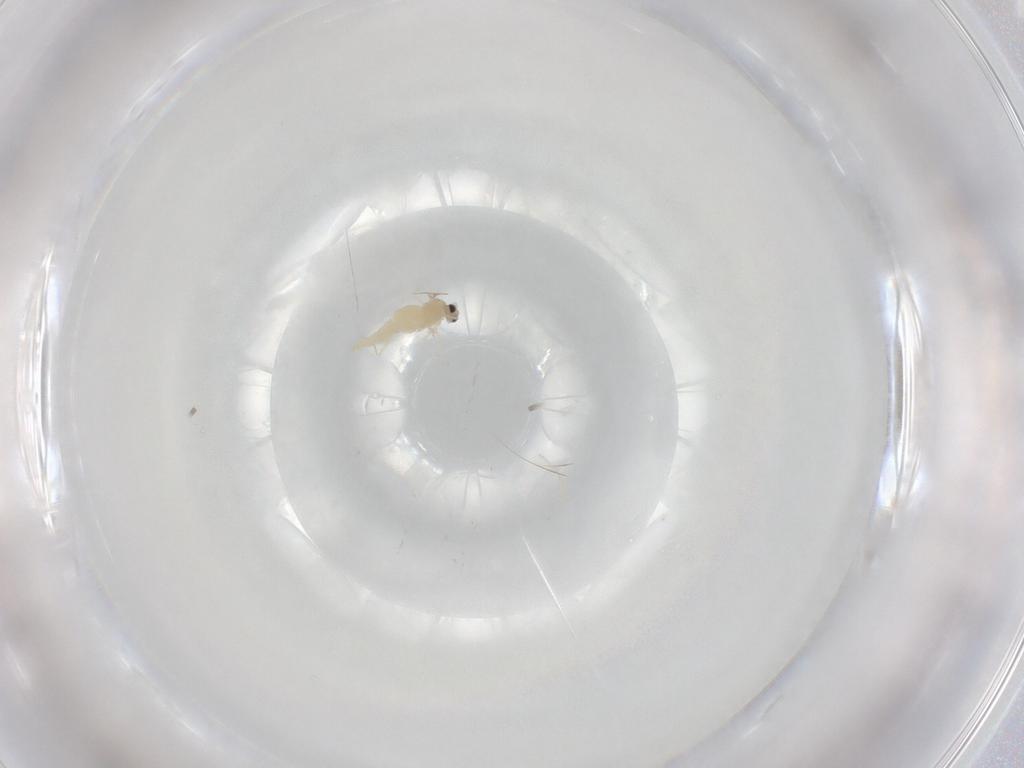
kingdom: Animalia
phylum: Arthropoda
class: Insecta
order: Diptera
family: Cecidomyiidae
